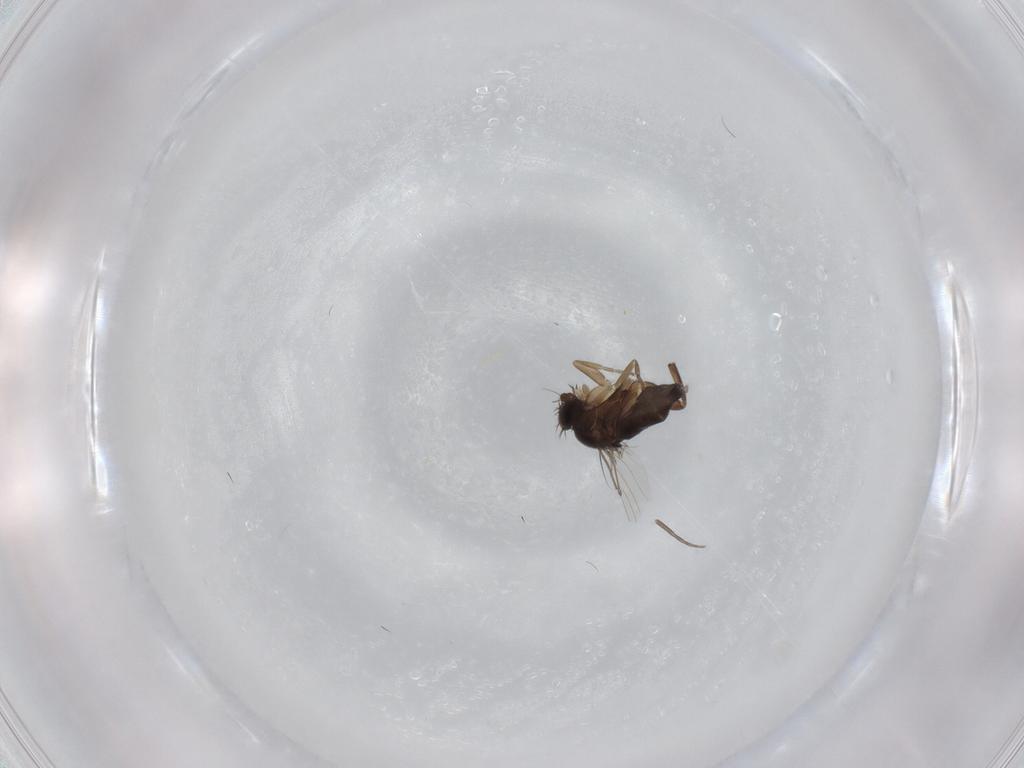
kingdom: Animalia
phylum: Arthropoda
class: Insecta
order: Diptera
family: Phoridae
